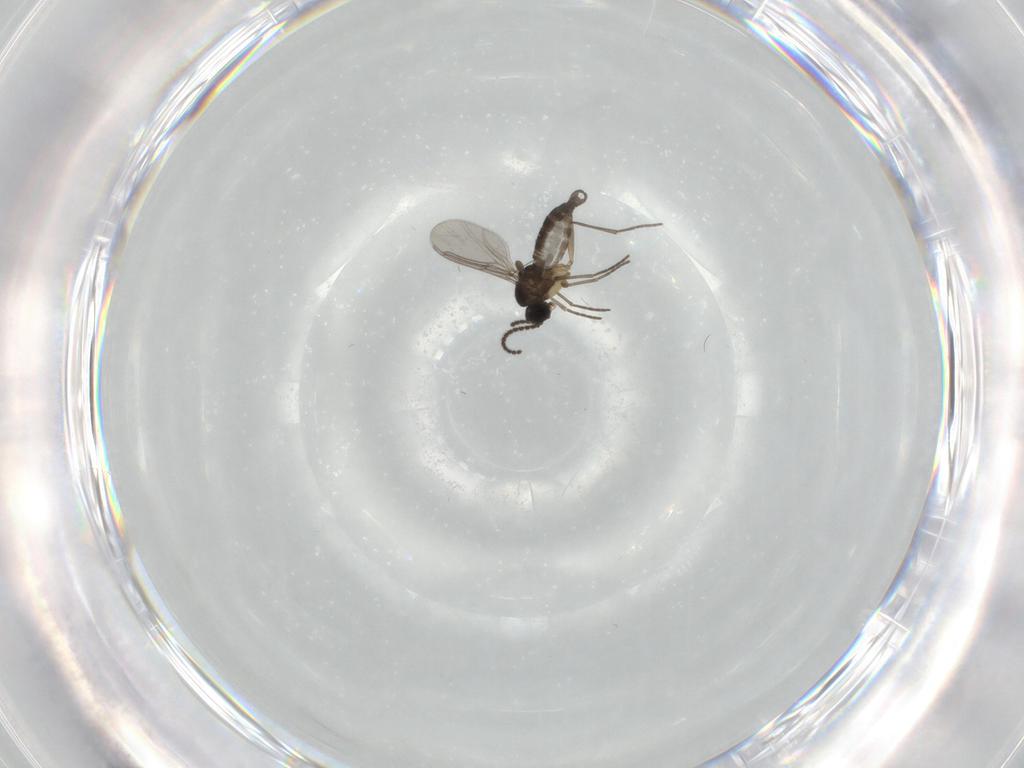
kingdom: Animalia
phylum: Arthropoda
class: Insecta
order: Diptera
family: Sciaridae
